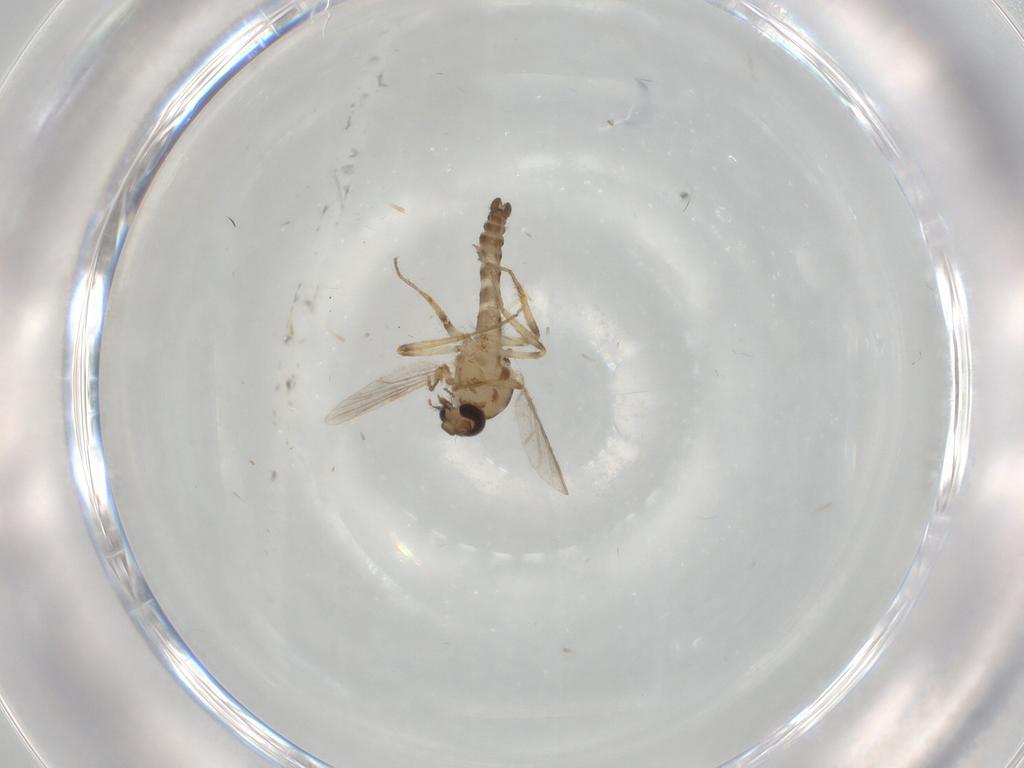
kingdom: Animalia
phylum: Arthropoda
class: Insecta
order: Diptera
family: Ceratopogonidae
